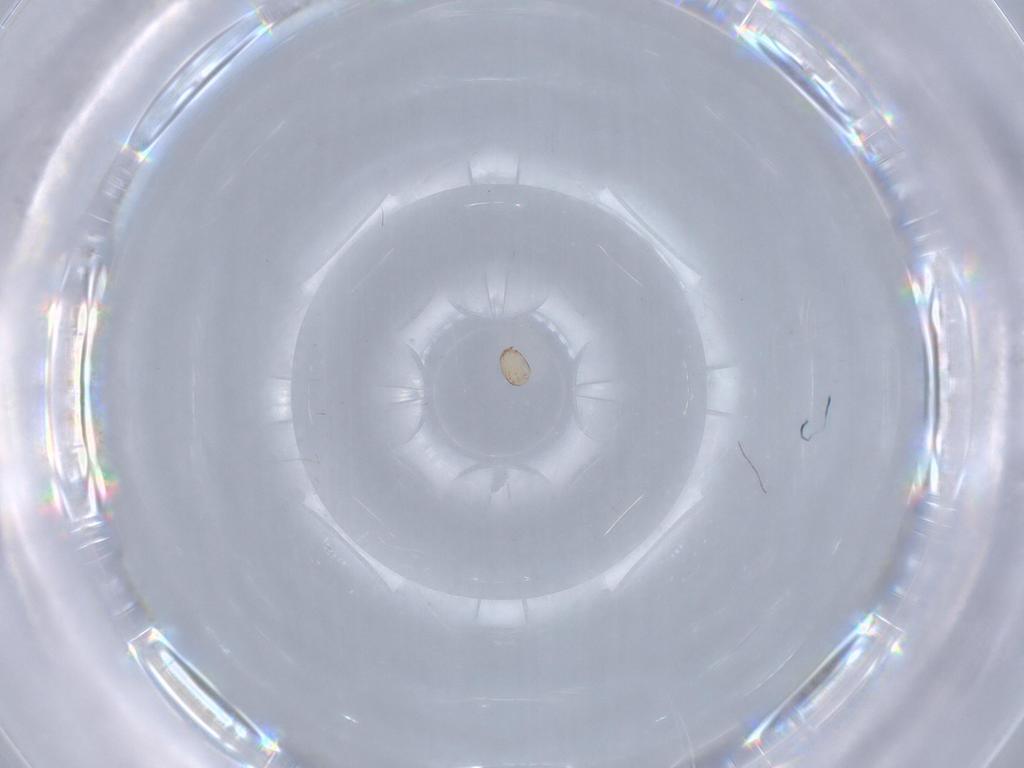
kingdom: Animalia
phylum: Arthropoda
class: Arachnida
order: Sarcoptiformes
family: Acaridae
